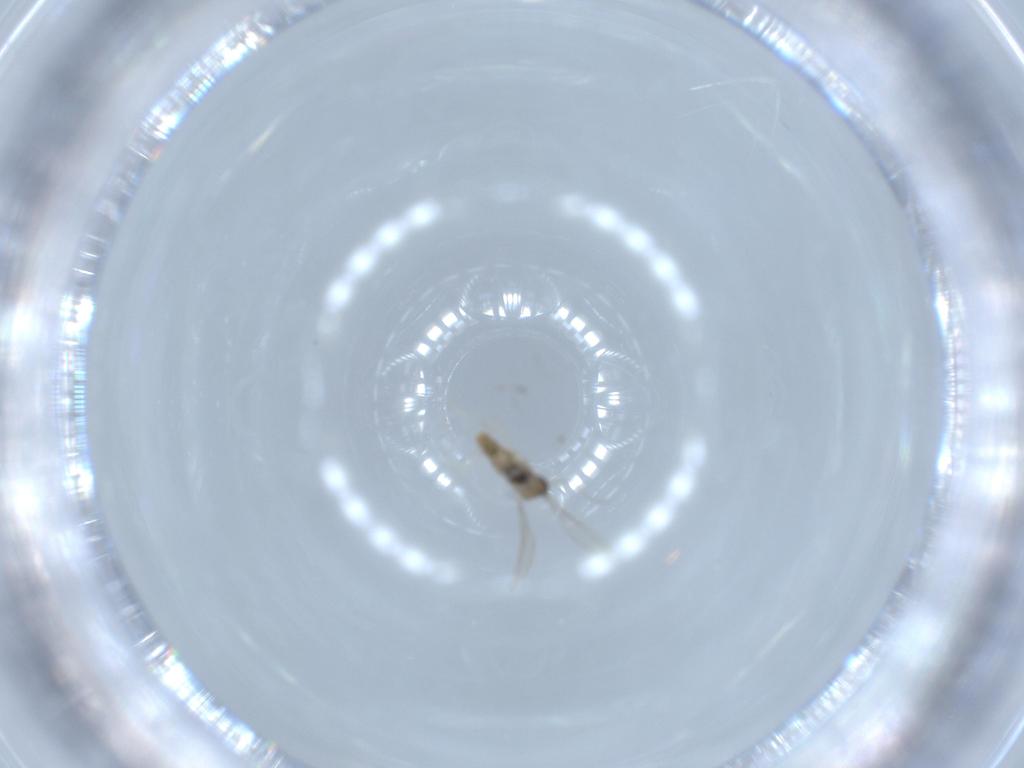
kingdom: Animalia
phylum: Arthropoda
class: Insecta
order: Diptera
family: Cecidomyiidae
